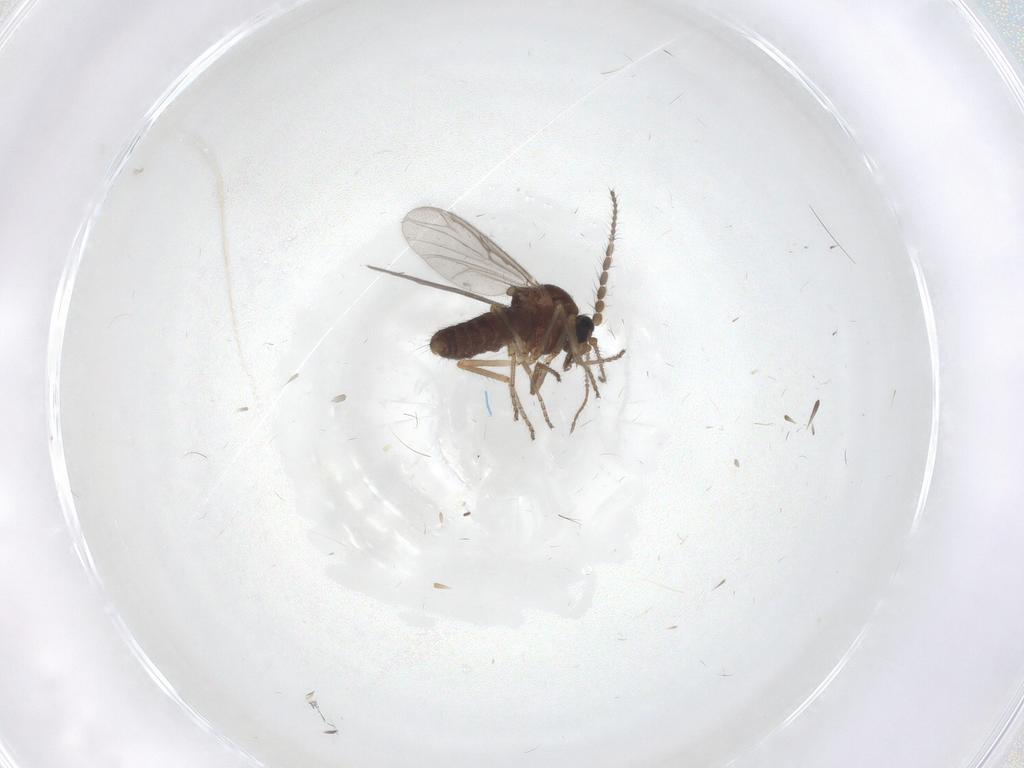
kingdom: Animalia
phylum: Arthropoda
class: Insecta
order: Diptera
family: Ceratopogonidae
